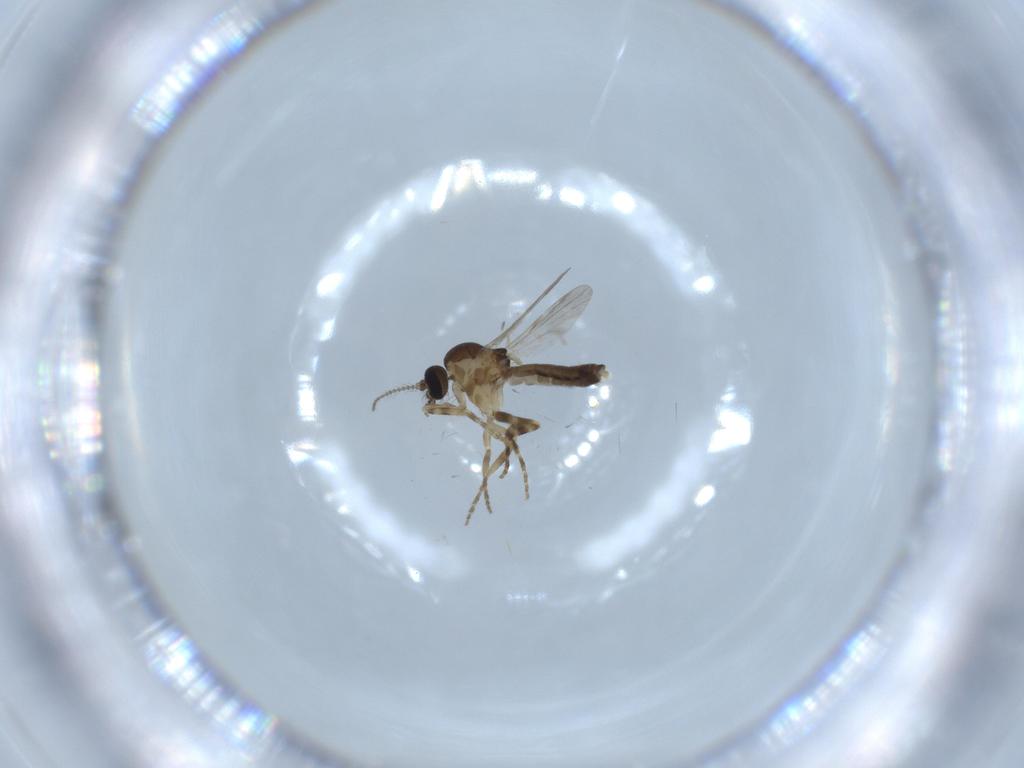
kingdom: Animalia
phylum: Arthropoda
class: Insecta
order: Diptera
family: Ceratopogonidae
